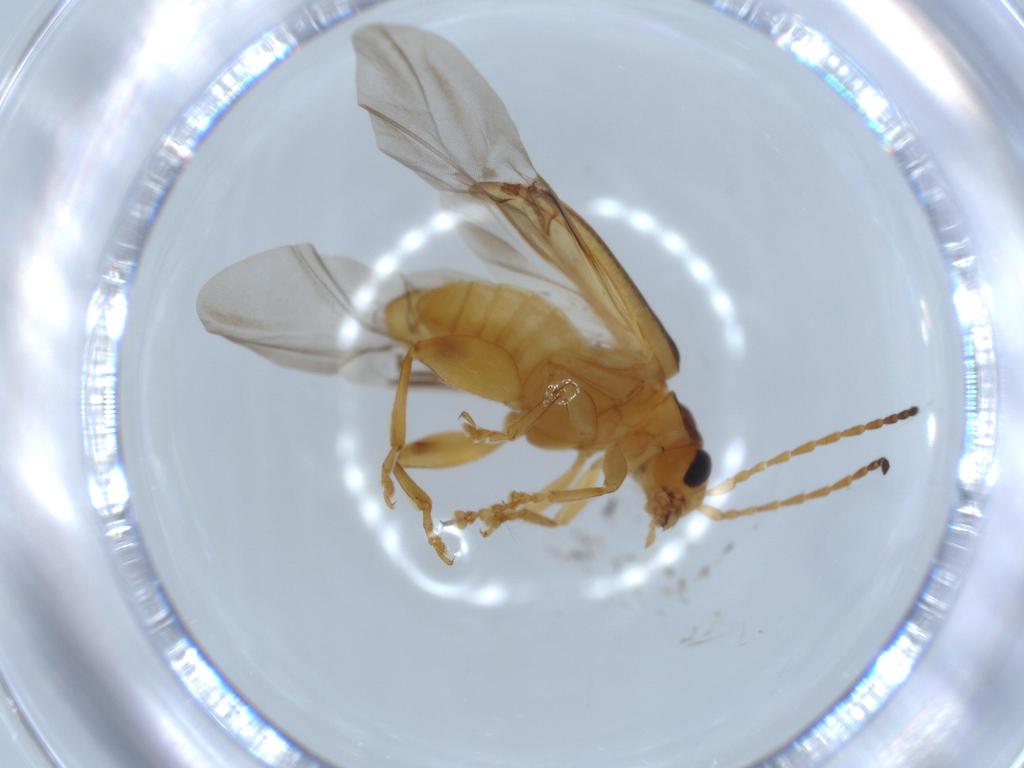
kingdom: Animalia
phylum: Arthropoda
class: Insecta
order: Coleoptera
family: Chrysomelidae
